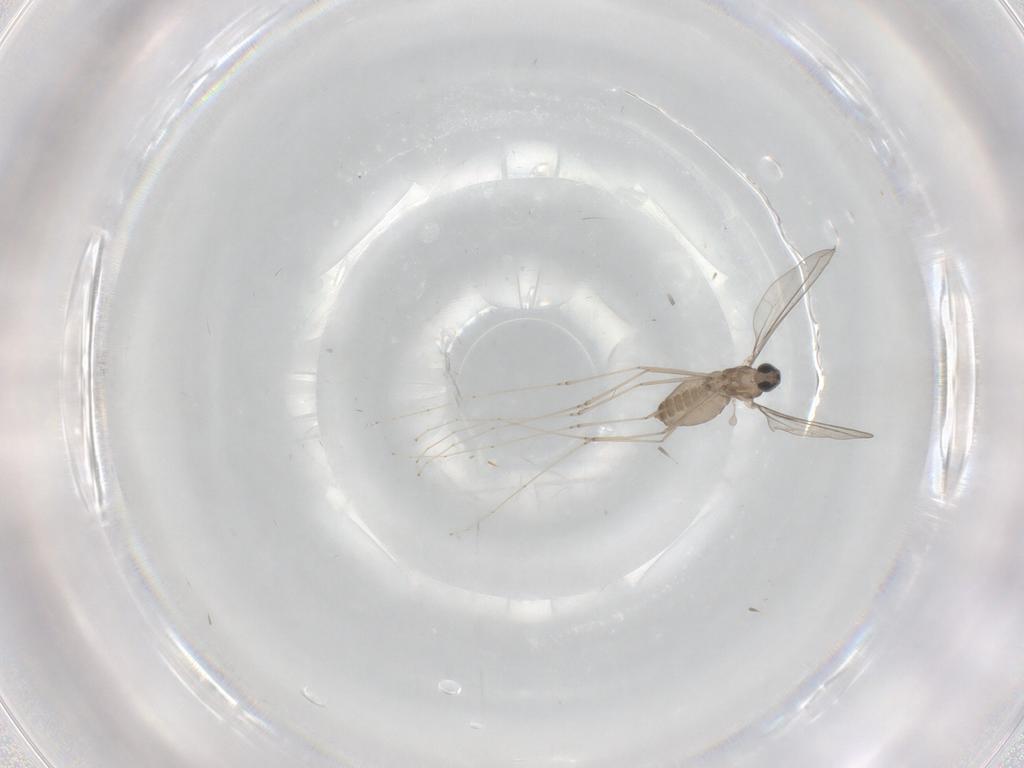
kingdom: Animalia
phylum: Arthropoda
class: Insecta
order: Diptera
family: Cecidomyiidae
